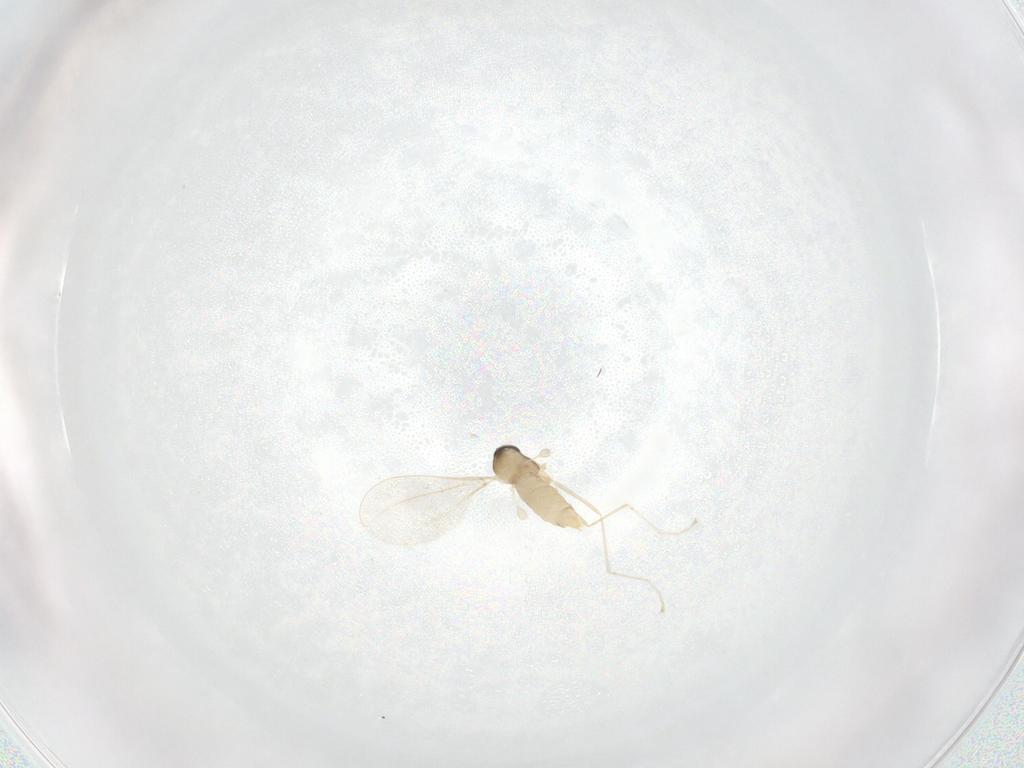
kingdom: Animalia
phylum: Arthropoda
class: Insecta
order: Diptera
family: Cecidomyiidae
